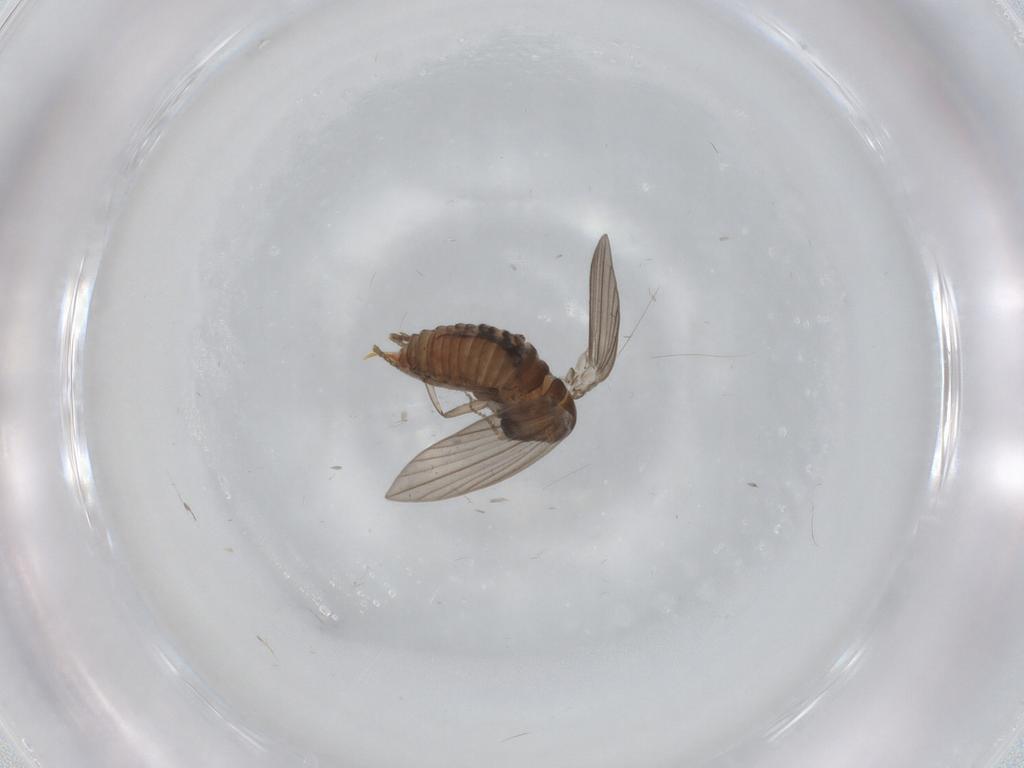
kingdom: Animalia
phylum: Arthropoda
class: Insecta
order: Diptera
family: Psychodidae
